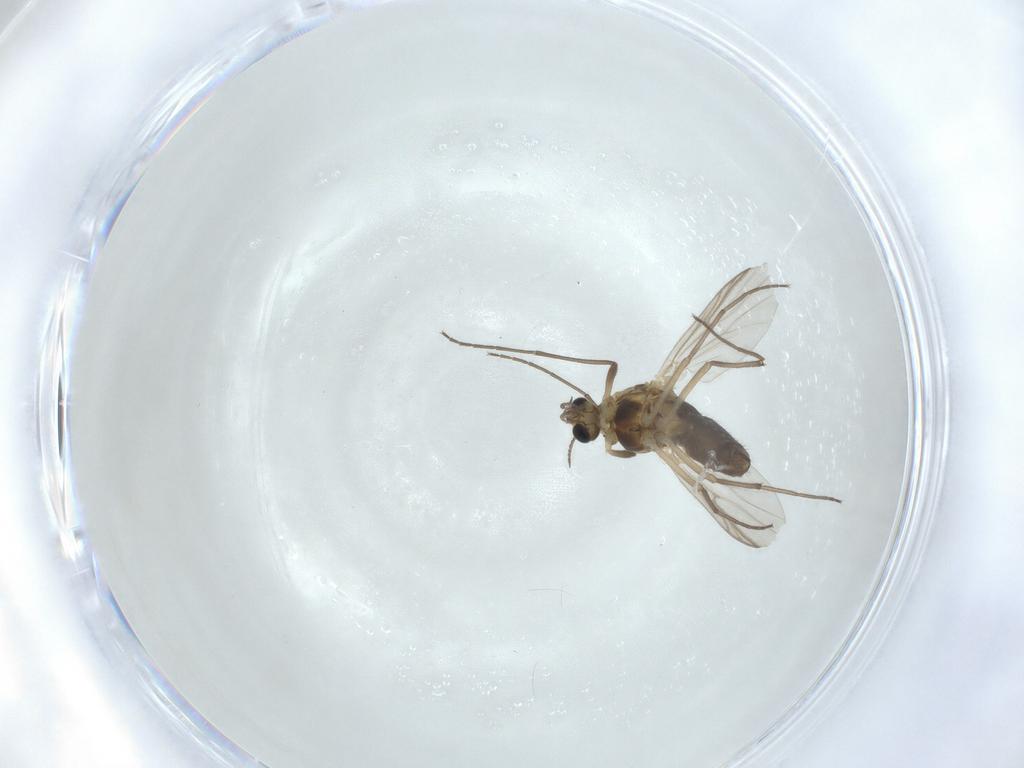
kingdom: Animalia
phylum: Arthropoda
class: Insecta
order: Diptera
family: Chironomidae
